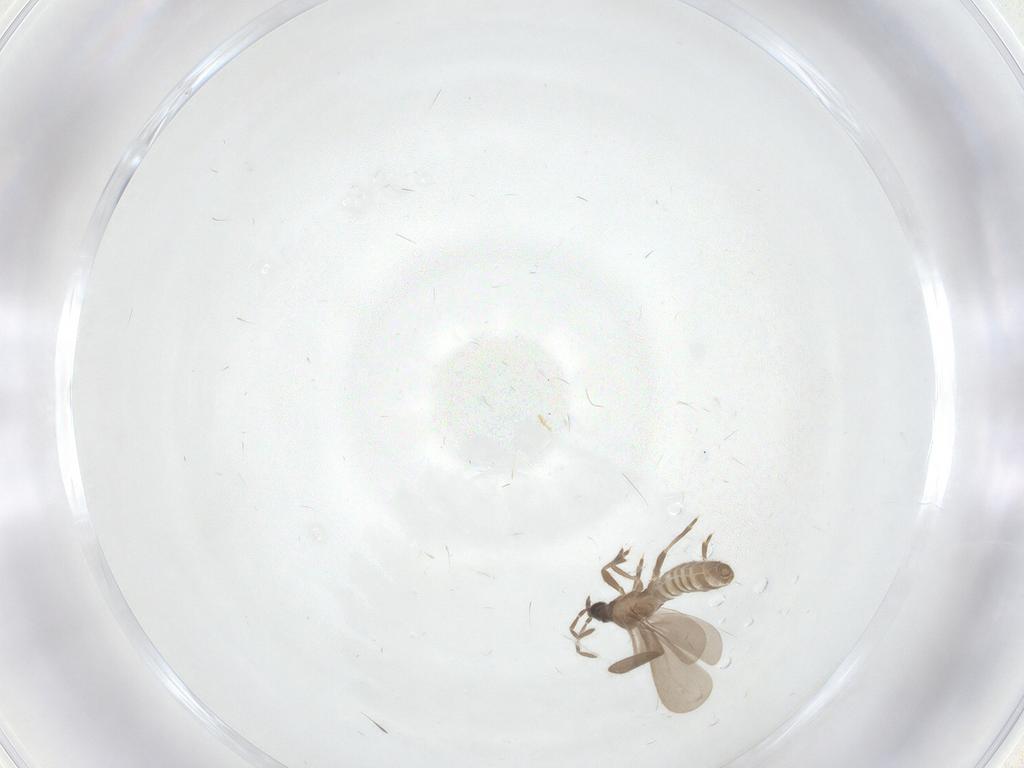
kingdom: Animalia
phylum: Arthropoda
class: Insecta
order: Hemiptera
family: Enicocephalidae
